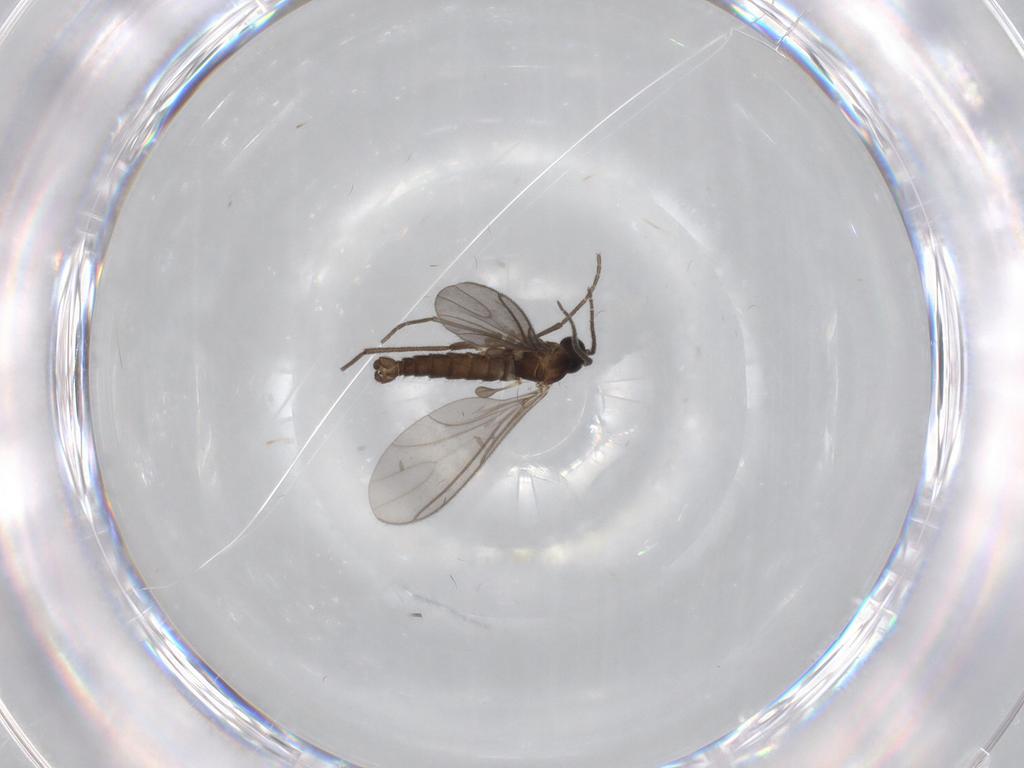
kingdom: Animalia
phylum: Arthropoda
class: Insecta
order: Diptera
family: Sciaridae
